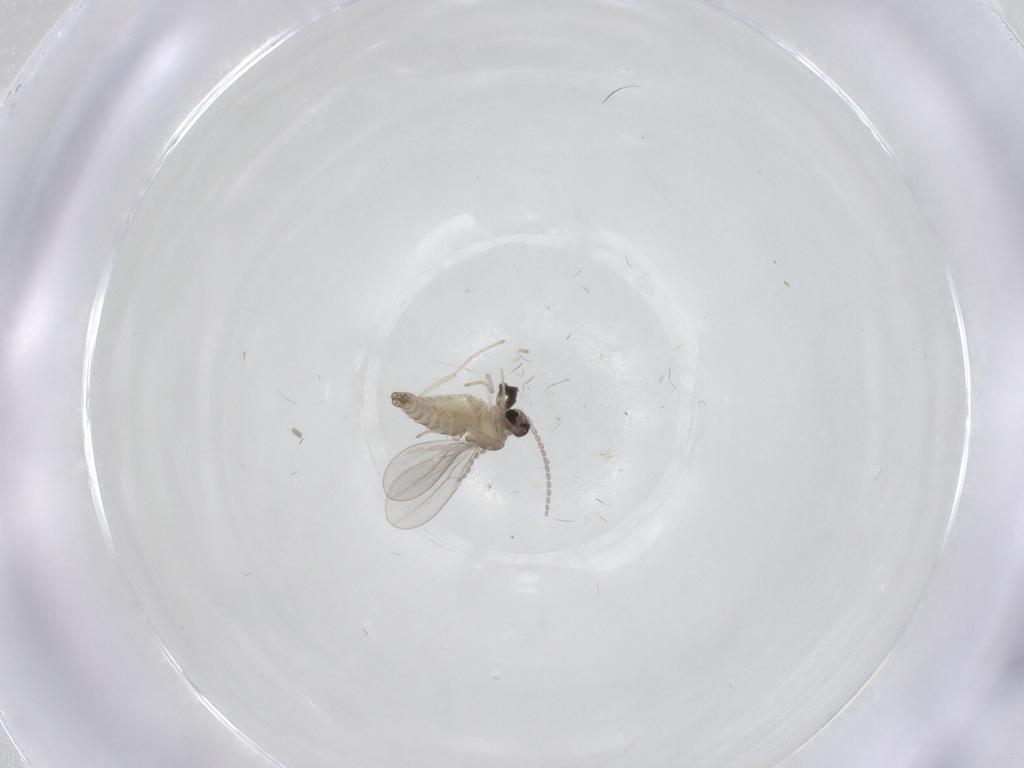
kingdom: Animalia
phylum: Arthropoda
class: Insecta
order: Diptera
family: Cecidomyiidae
